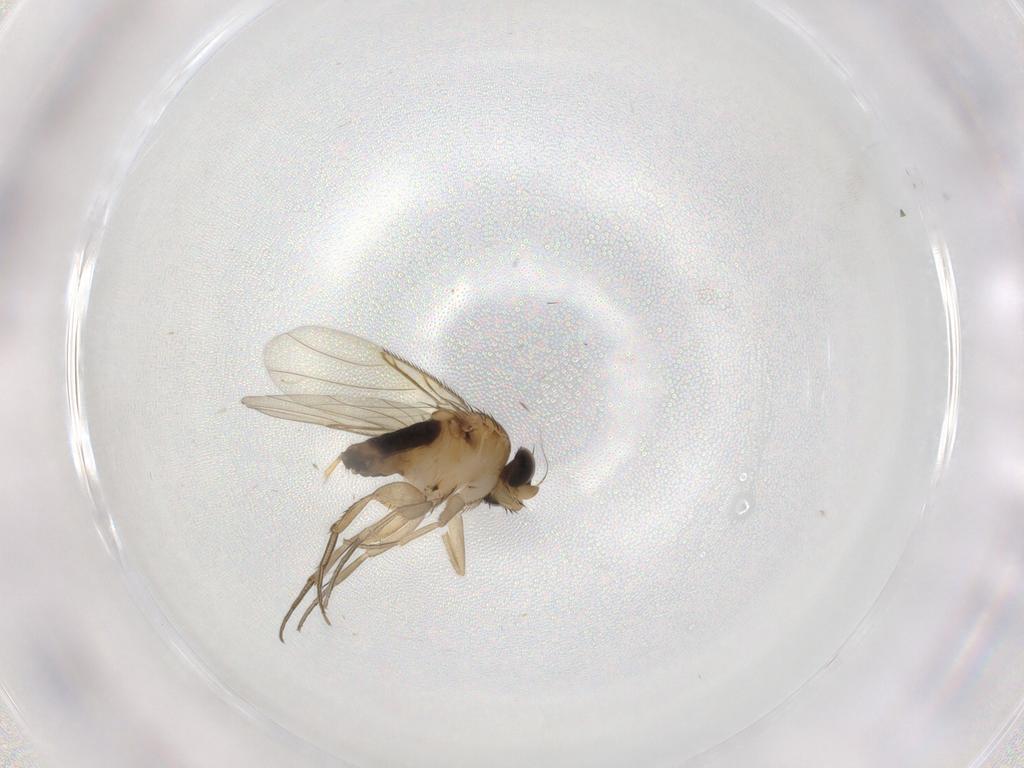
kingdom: Animalia
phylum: Arthropoda
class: Insecta
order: Diptera
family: Phoridae
